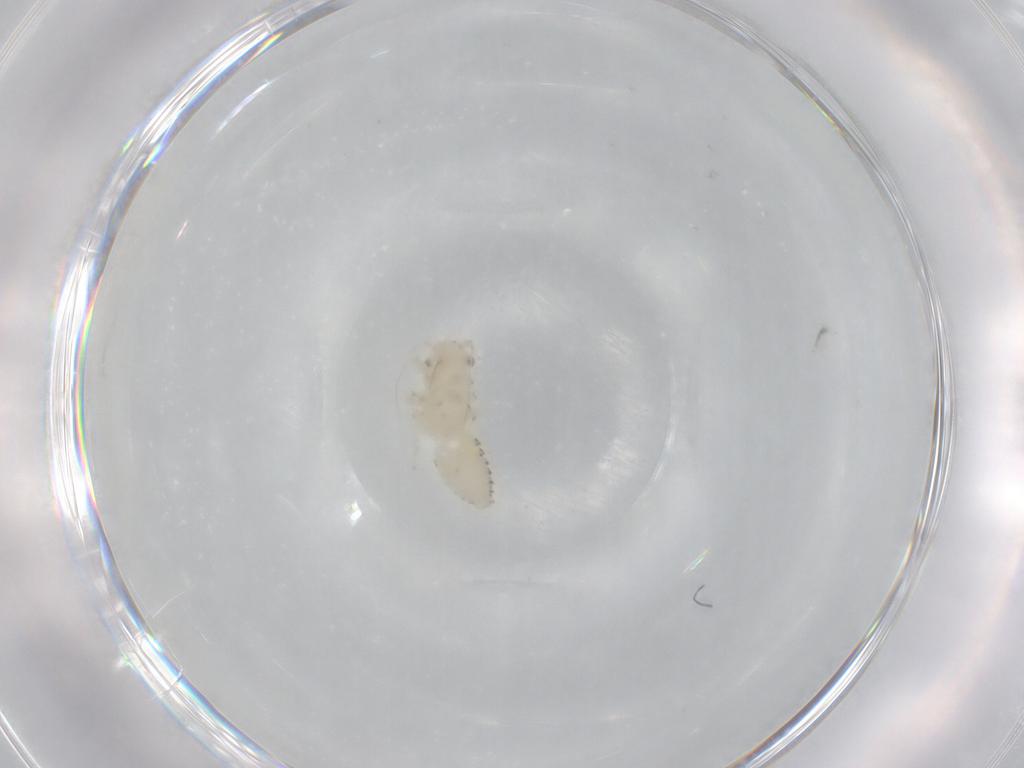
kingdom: Animalia
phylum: Arthropoda
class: Insecta
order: Hemiptera
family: Cicadellidae
